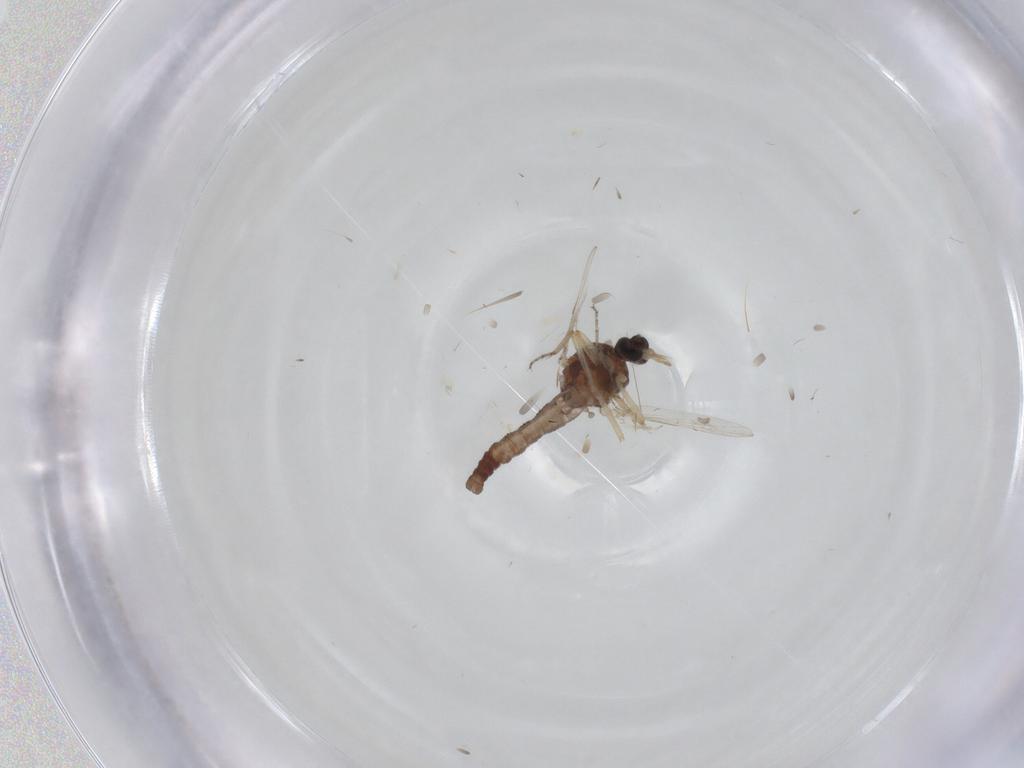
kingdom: Animalia
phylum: Arthropoda
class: Insecta
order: Diptera
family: Ceratopogonidae
